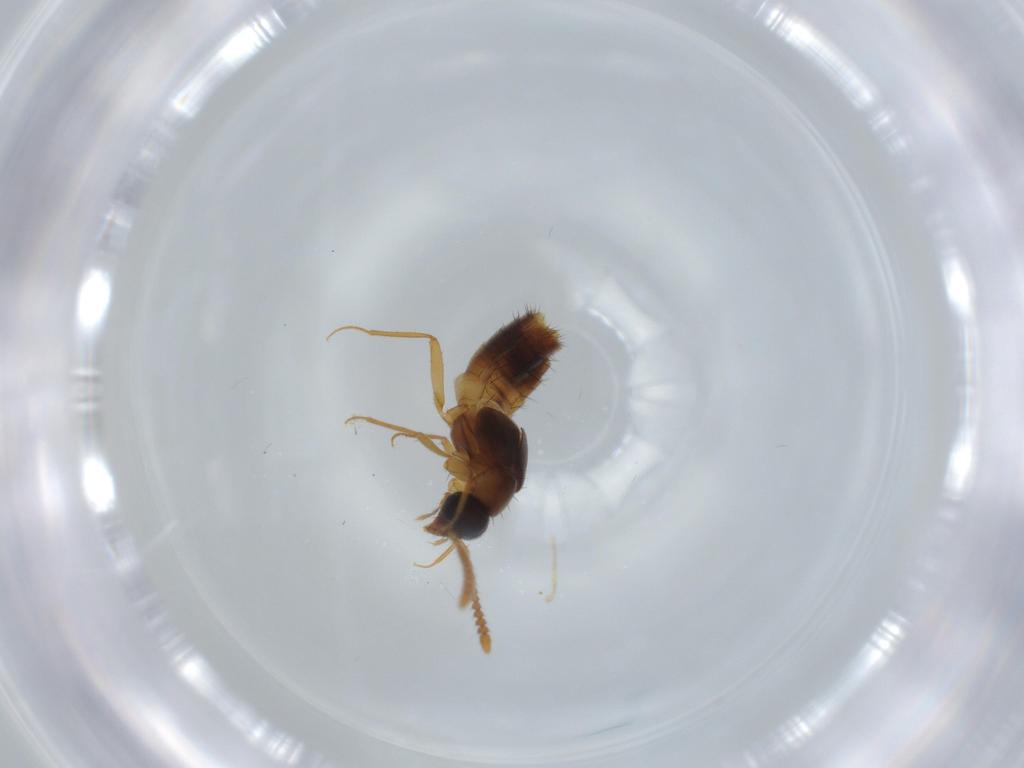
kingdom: Animalia
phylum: Arthropoda
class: Insecta
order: Coleoptera
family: Staphylinidae
